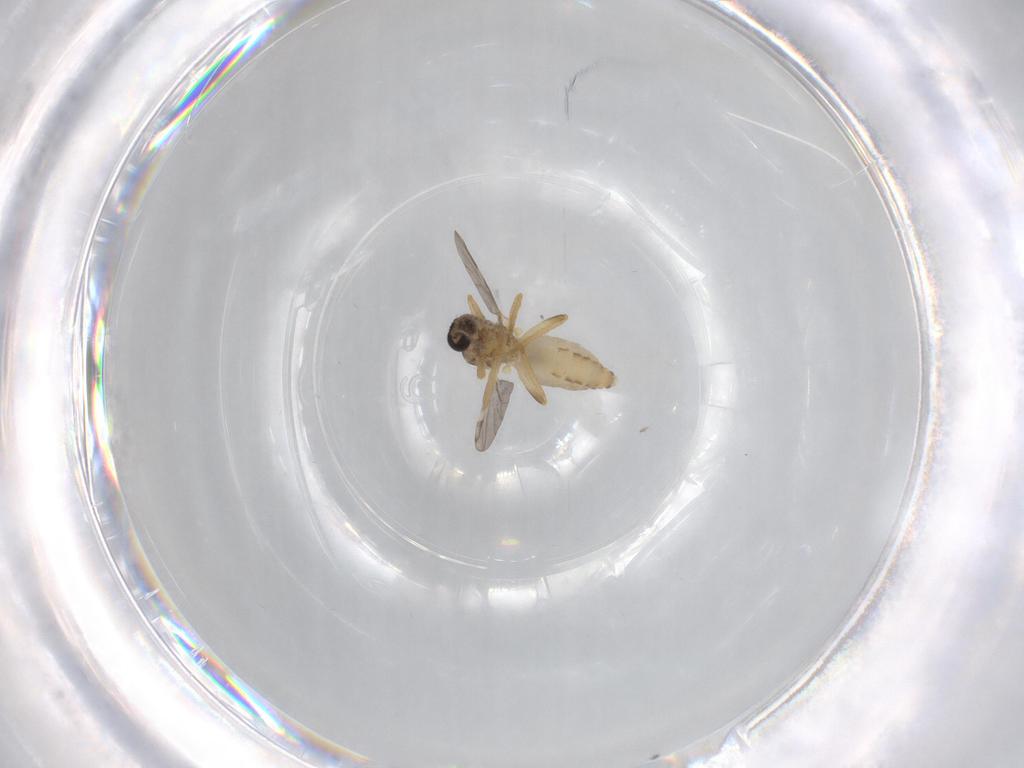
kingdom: Animalia
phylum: Arthropoda
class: Insecta
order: Diptera
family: Ceratopogonidae
